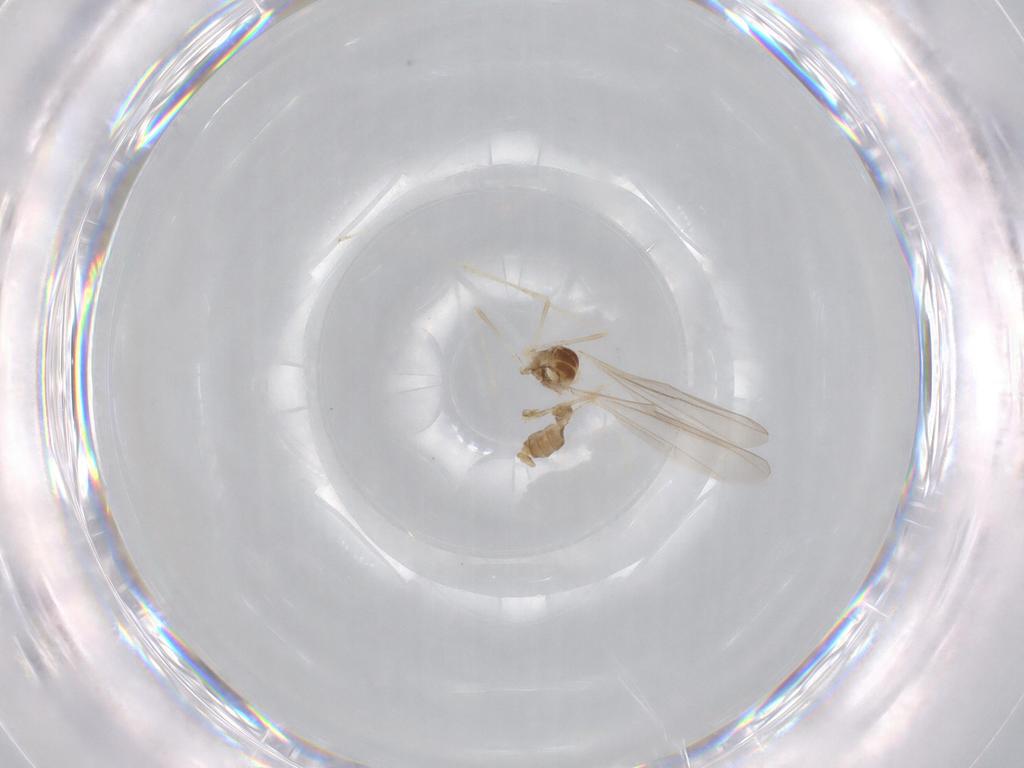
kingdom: Animalia
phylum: Arthropoda
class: Insecta
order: Diptera
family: Cecidomyiidae
